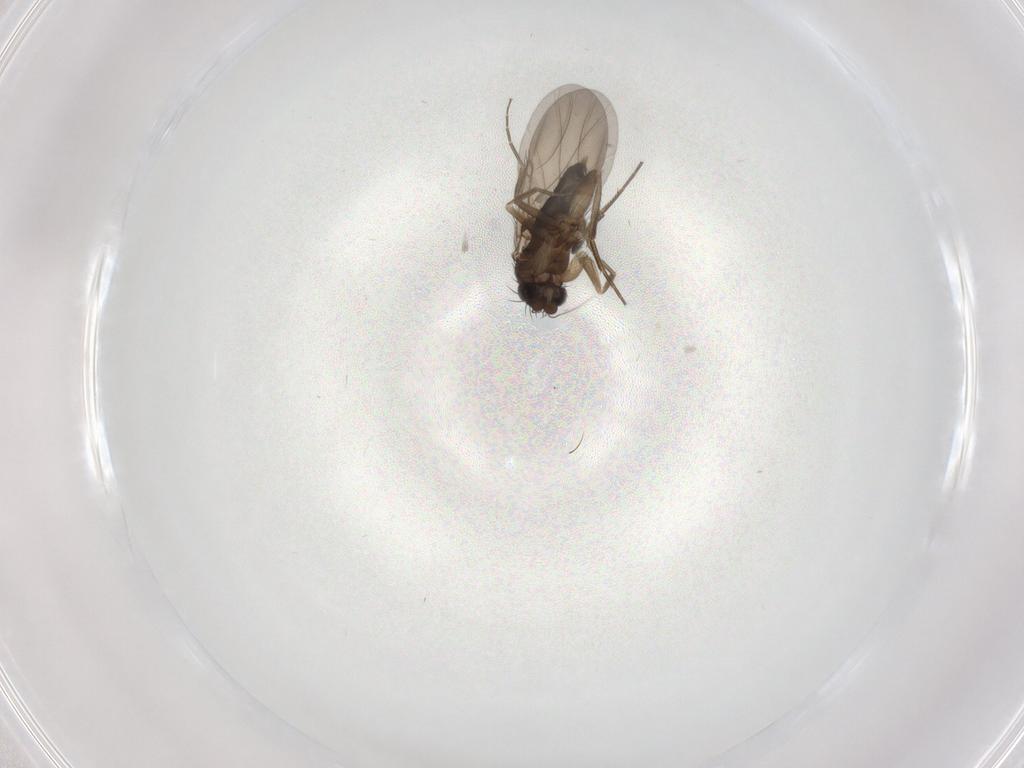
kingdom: Animalia
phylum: Arthropoda
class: Insecta
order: Diptera
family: Phoridae
